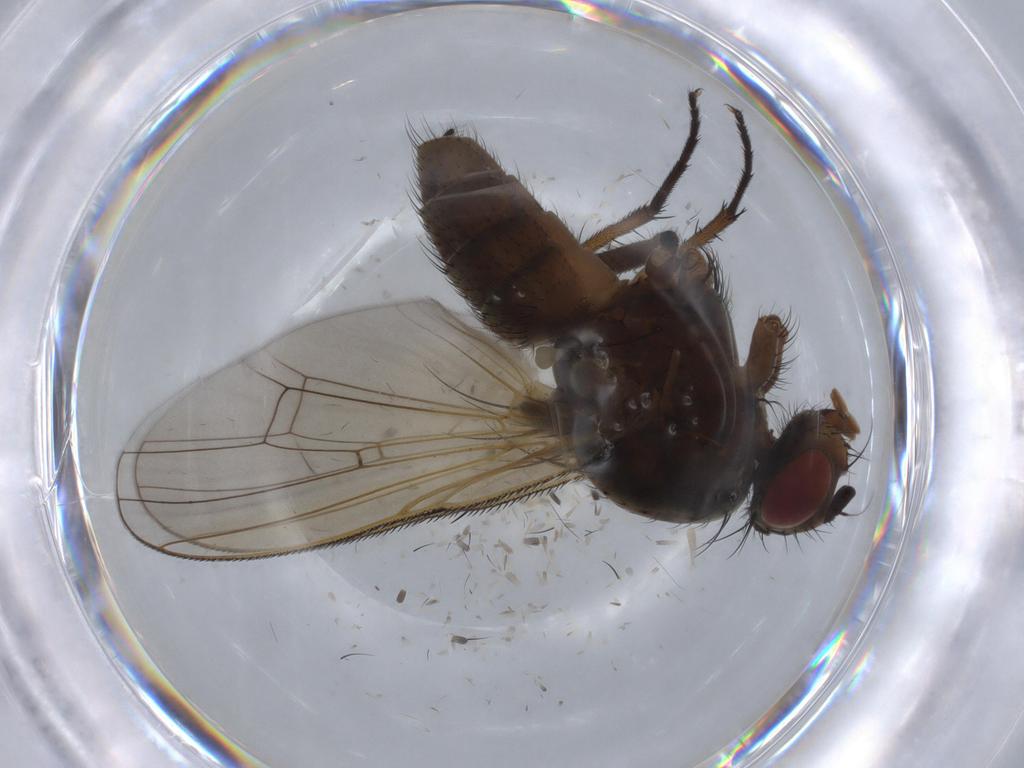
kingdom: Animalia
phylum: Arthropoda
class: Insecta
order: Diptera
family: Anthomyiidae
